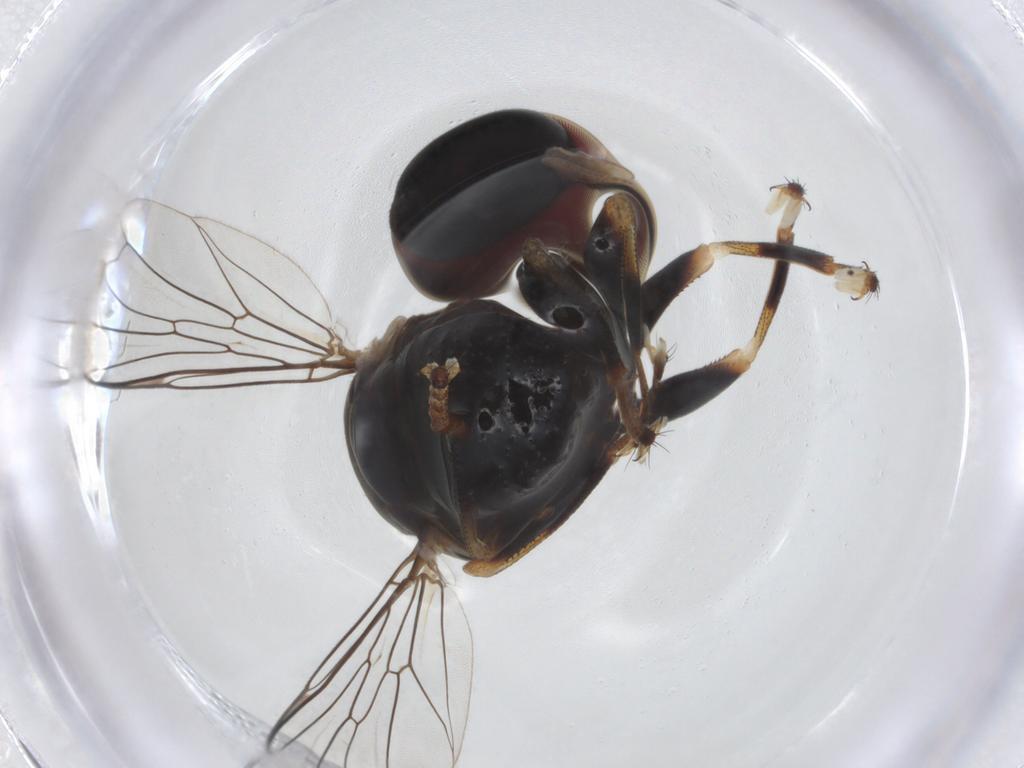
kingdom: Animalia
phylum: Arthropoda
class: Insecta
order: Diptera
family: Pipunculidae
